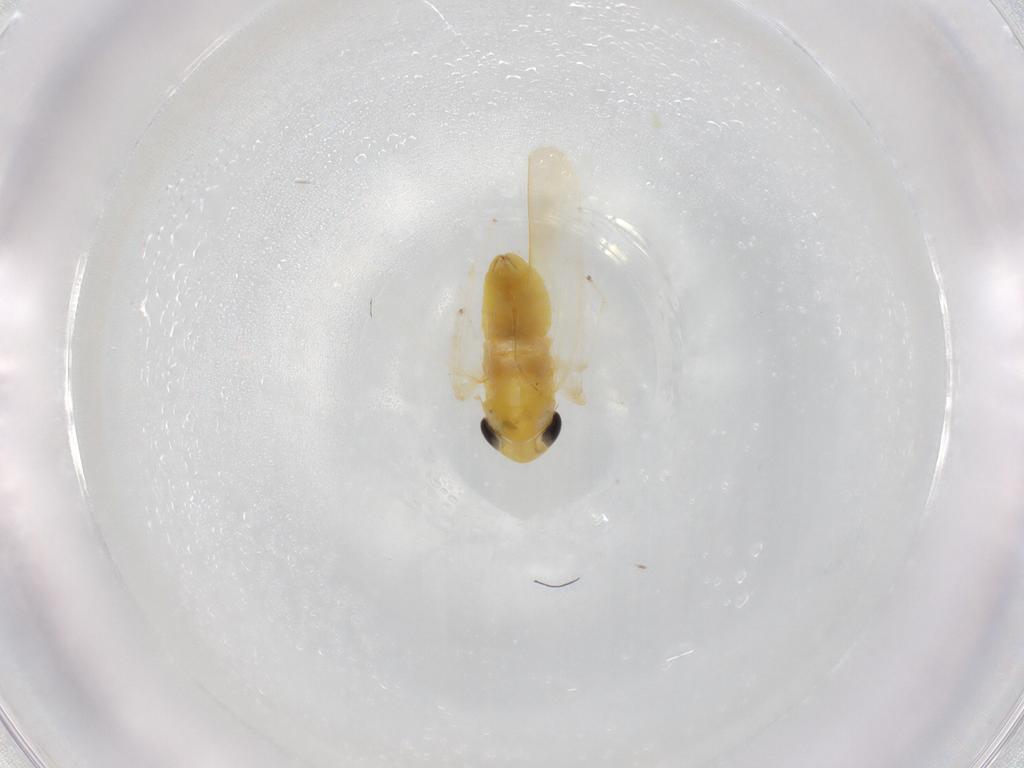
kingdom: Animalia
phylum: Arthropoda
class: Insecta
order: Hemiptera
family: Cicadellidae
